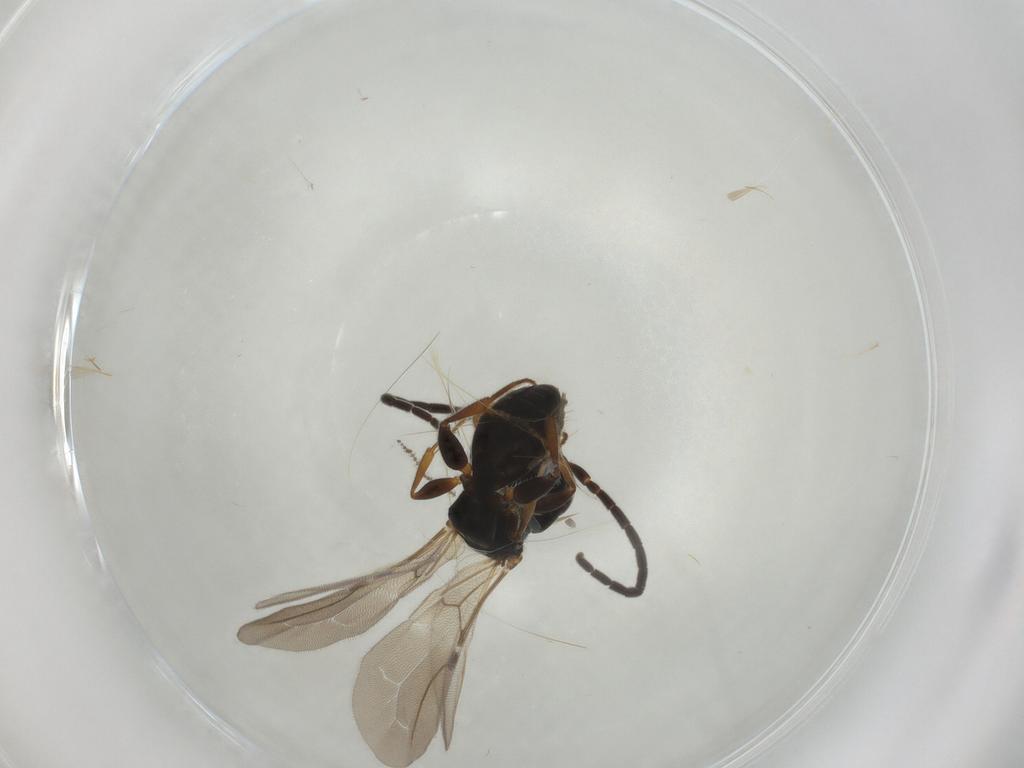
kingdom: Animalia
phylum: Arthropoda
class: Insecta
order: Hymenoptera
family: Bethylidae
